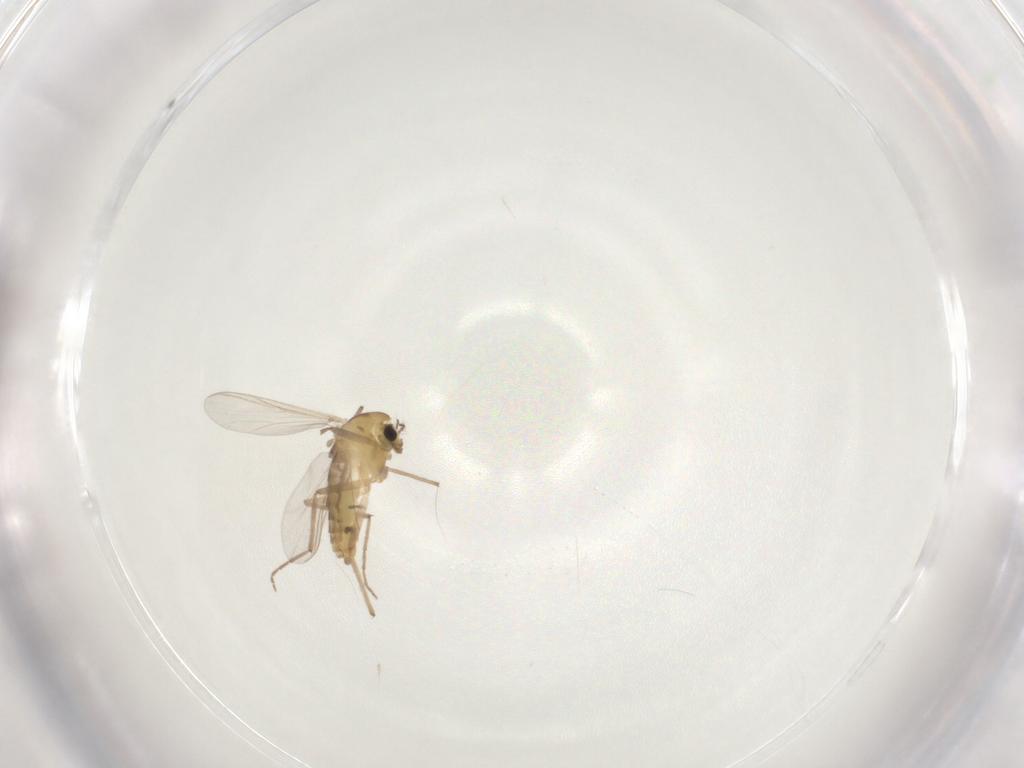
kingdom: Animalia
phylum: Arthropoda
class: Insecta
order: Diptera
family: Chironomidae
